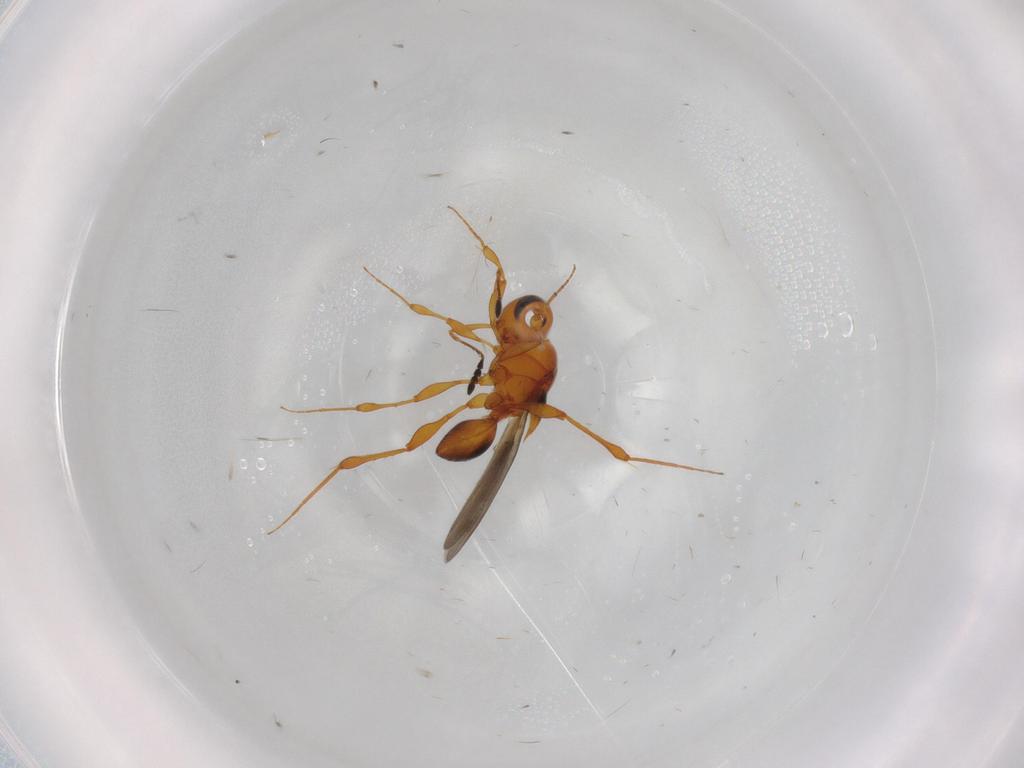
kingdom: Animalia
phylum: Arthropoda
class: Insecta
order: Hymenoptera
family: Platygastridae
